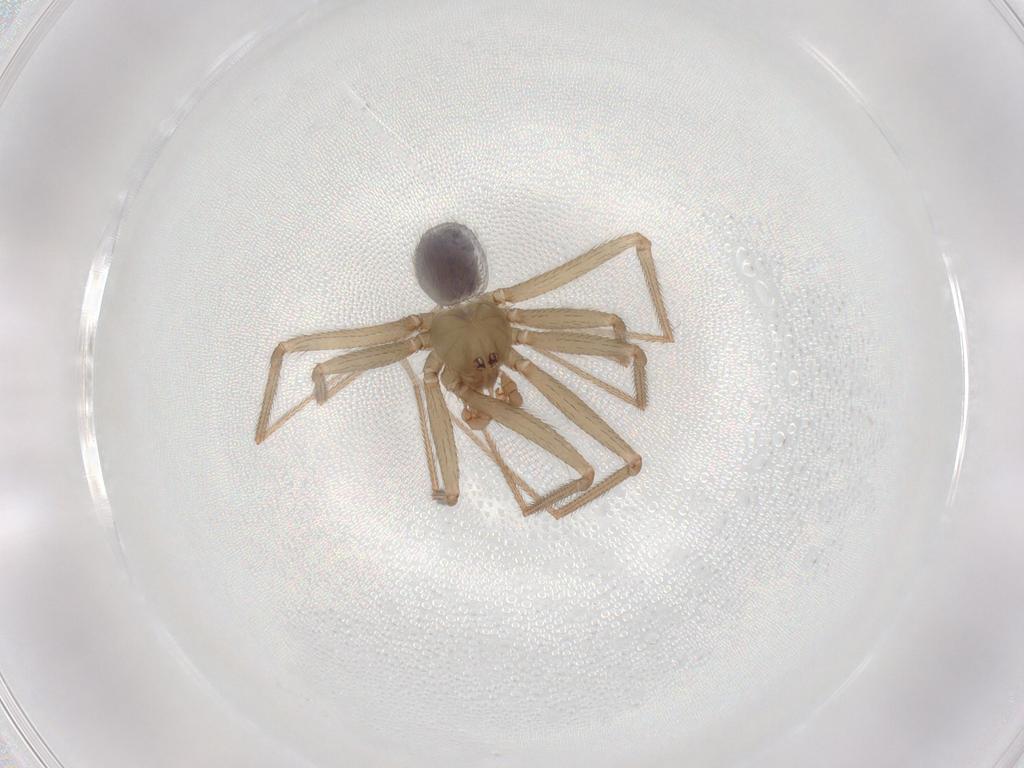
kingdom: Animalia
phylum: Arthropoda
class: Arachnida
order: Araneae
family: Pholcidae
